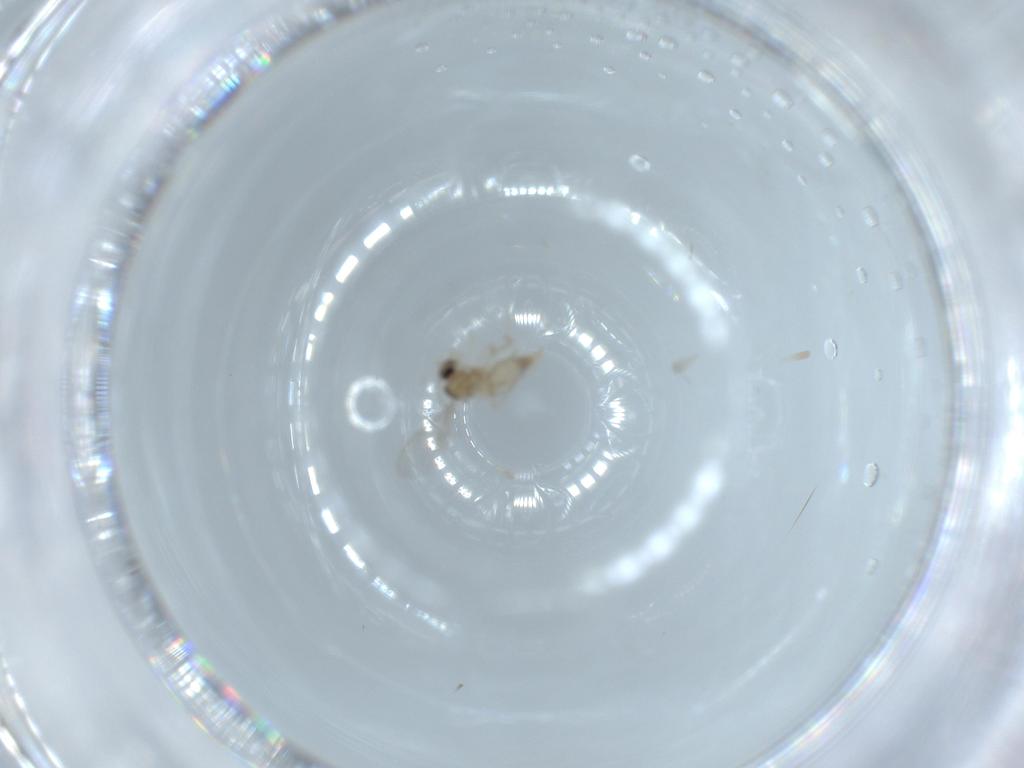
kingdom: Animalia
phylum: Arthropoda
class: Insecta
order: Diptera
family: Cecidomyiidae
